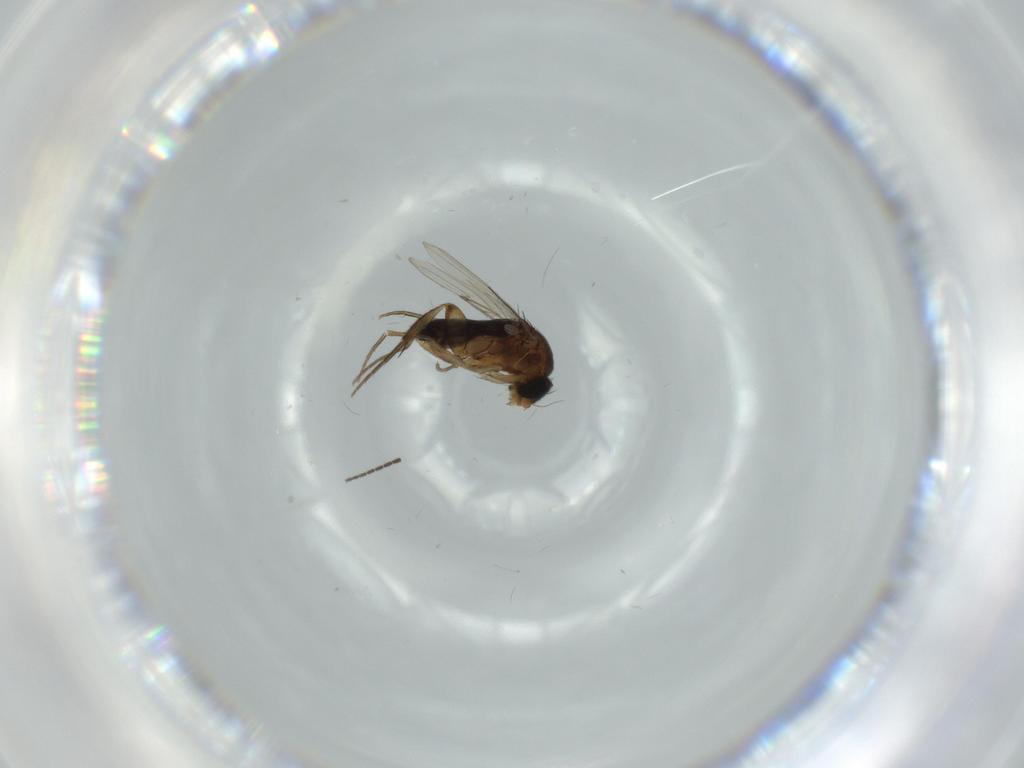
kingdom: Animalia
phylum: Arthropoda
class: Insecta
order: Diptera
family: Phoridae
